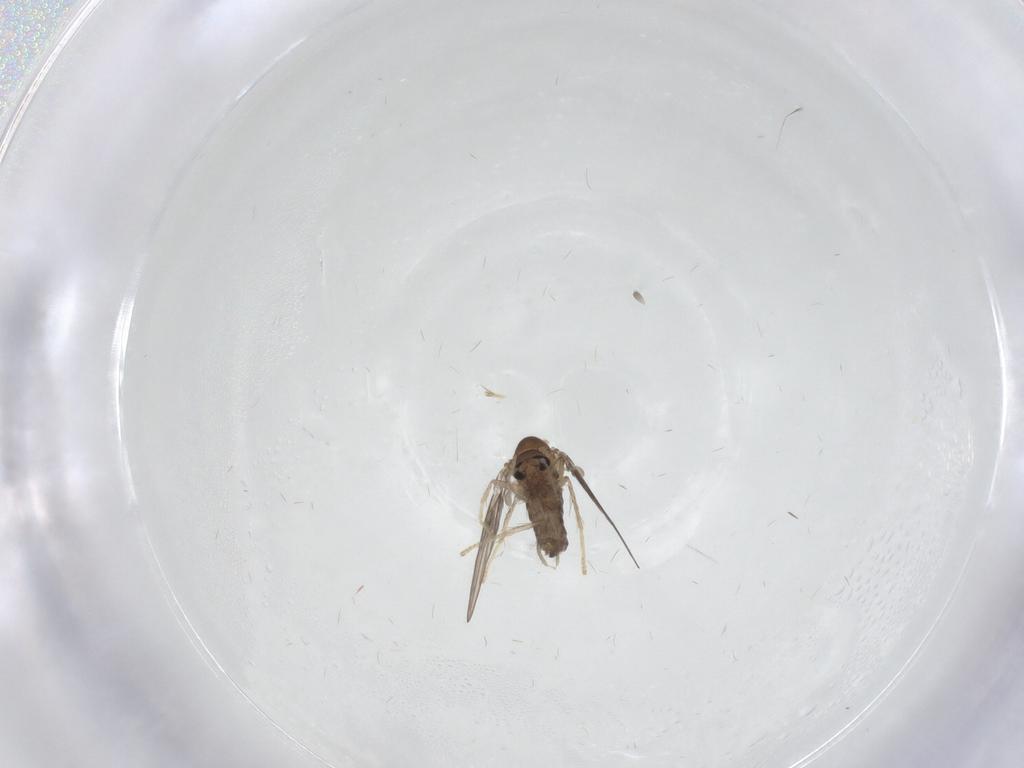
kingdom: Animalia
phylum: Arthropoda
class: Insecta
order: Diptera
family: Psychodidae
